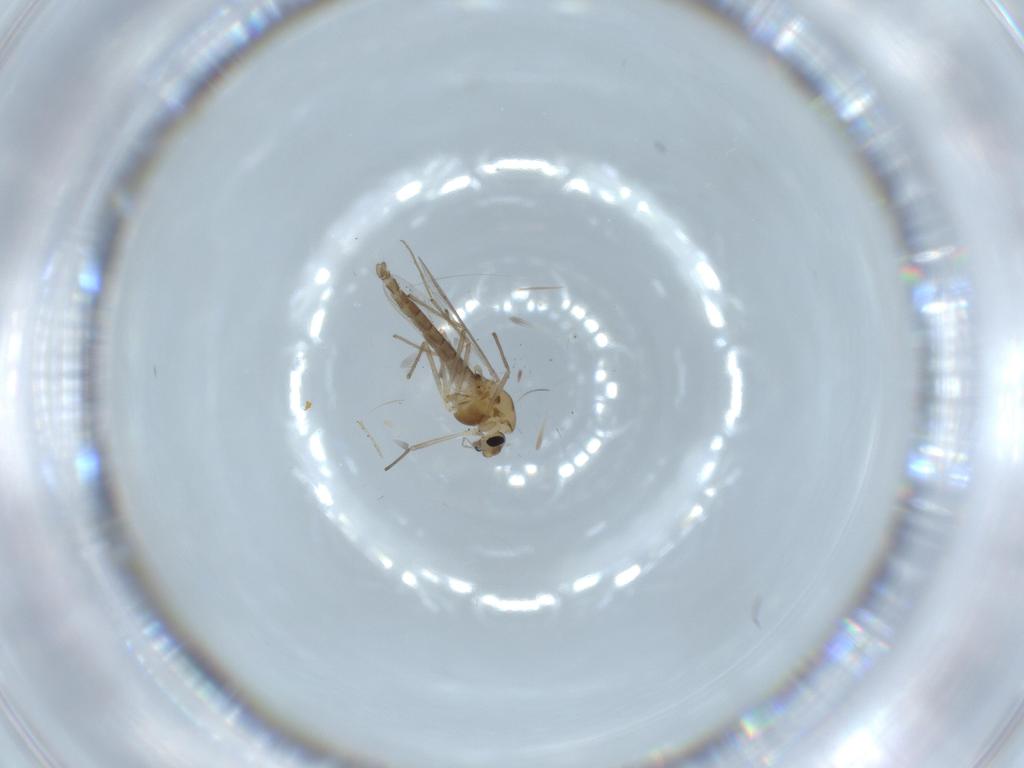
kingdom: Animalia
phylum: Arthropoda
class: Insecta
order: Diptera
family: Chironomidae
